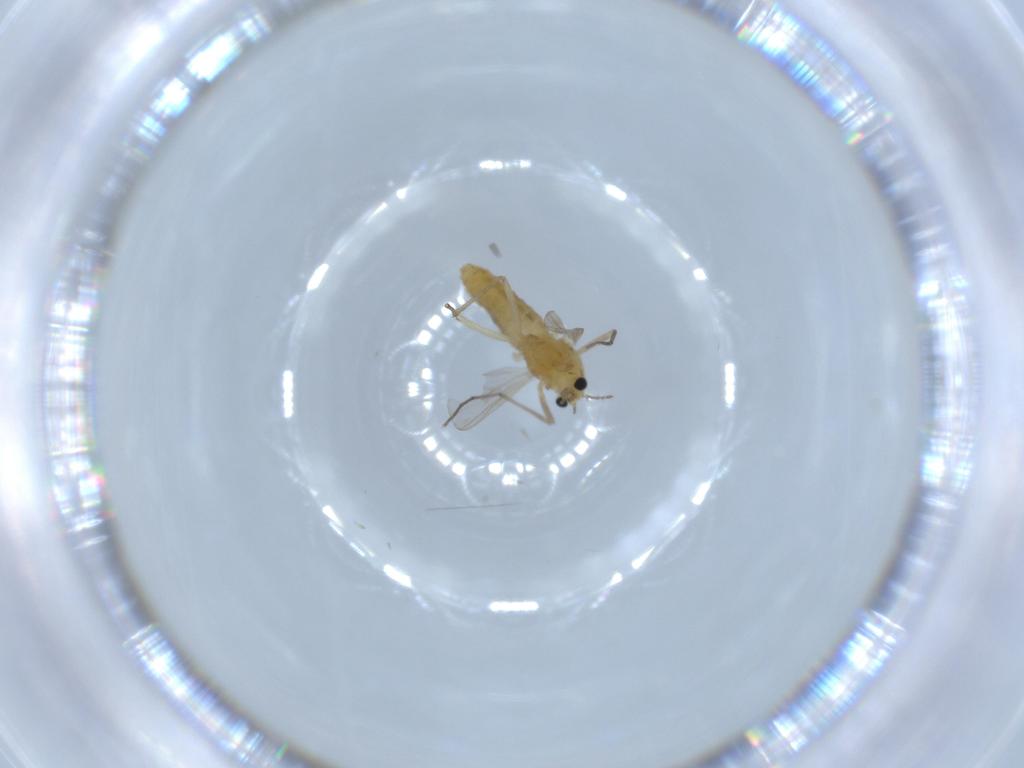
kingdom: Animalia
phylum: Arthropoda
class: Insecta
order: Diptera
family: Chironomidae
